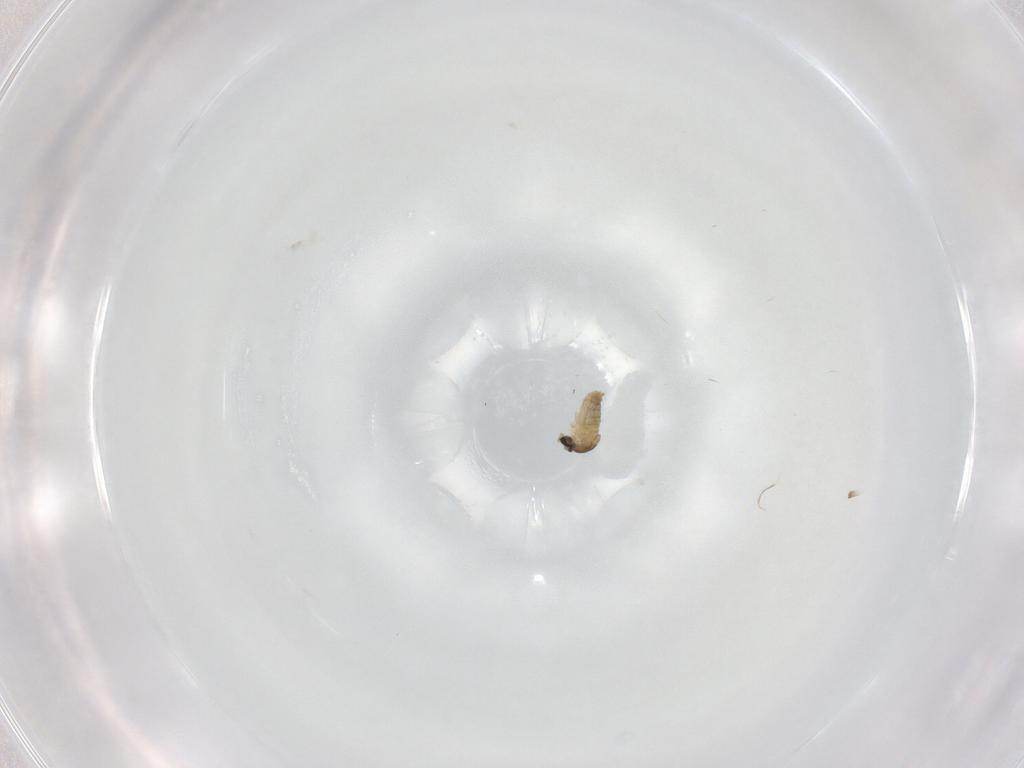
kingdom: Animalia
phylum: Arthropoda
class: Insecta
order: Diptera
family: Cecidomyiidae
